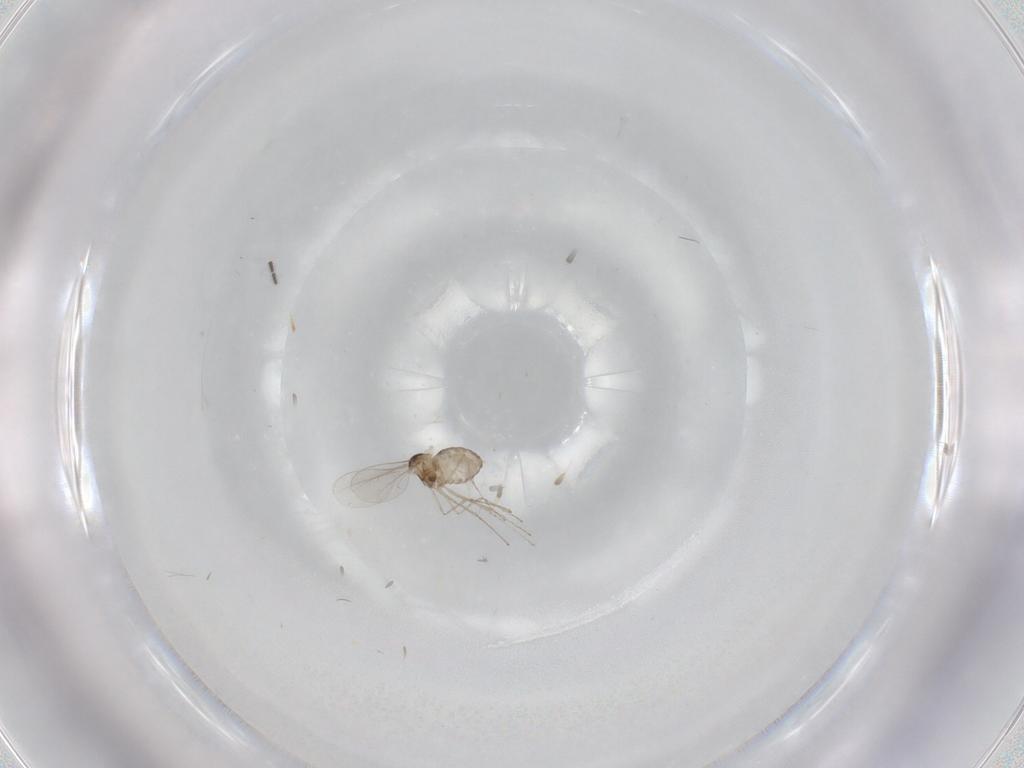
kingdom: Animalia
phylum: Arthropoda
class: Insecta
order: Diptera
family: Cecidomyiidae
